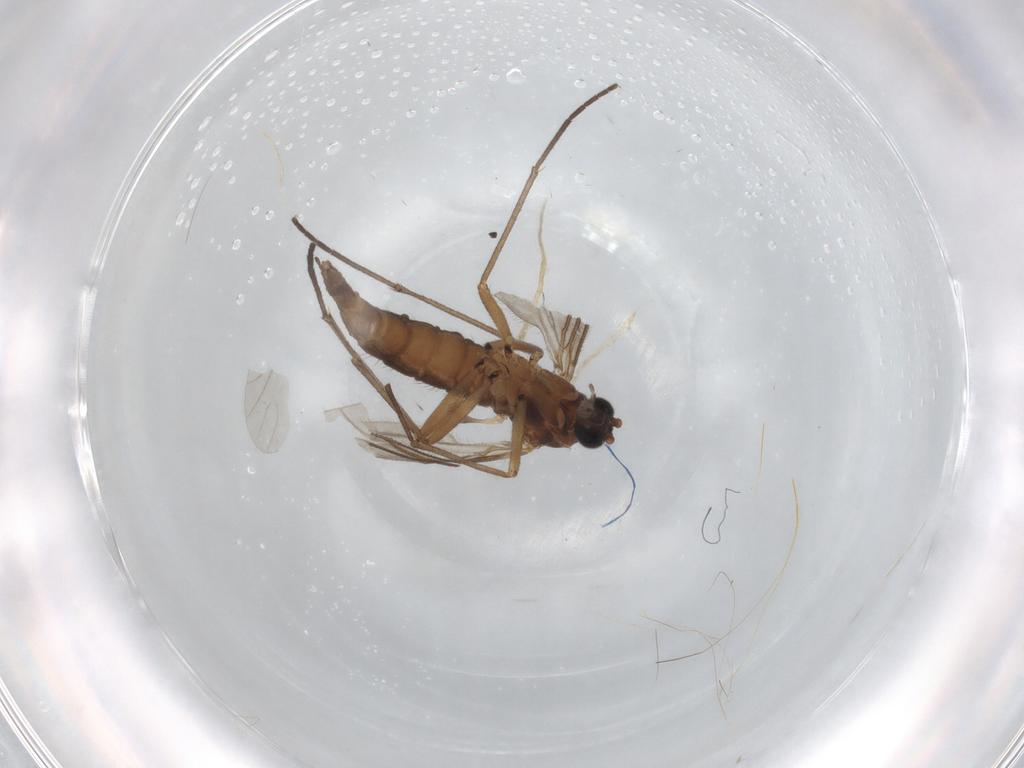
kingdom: Animalia
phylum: Arthropoda
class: Insecta
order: Diptera
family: Sciaridae
